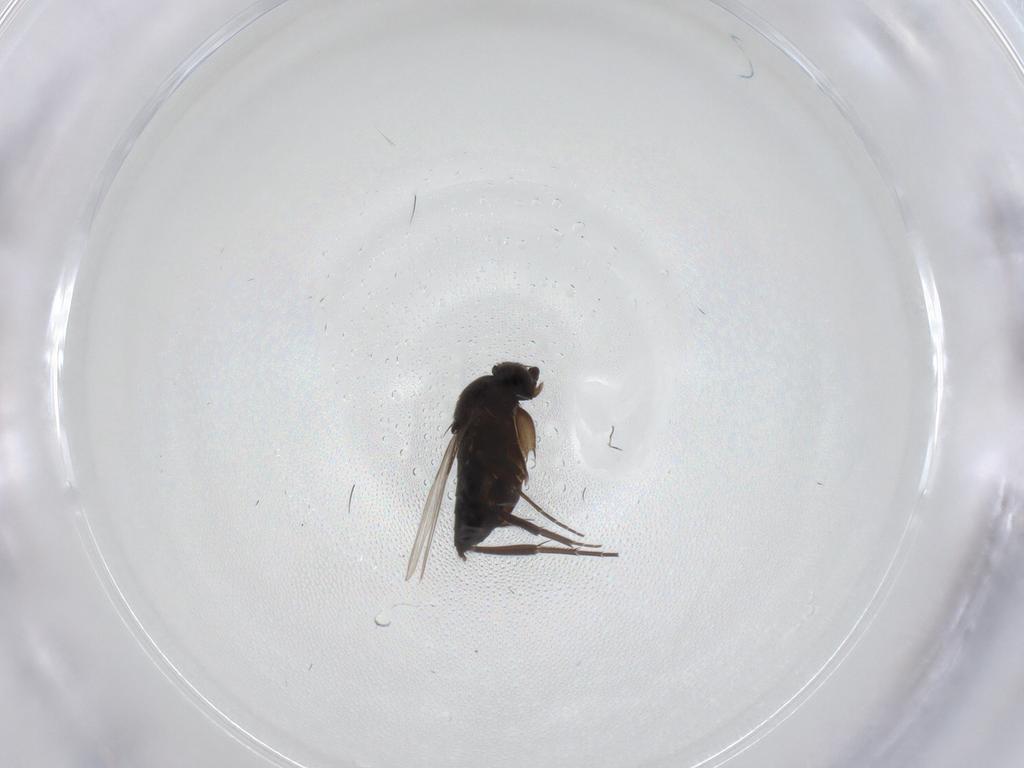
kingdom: Animalia
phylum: Arthropoda
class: Insecta
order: Diptera
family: Phoridae
